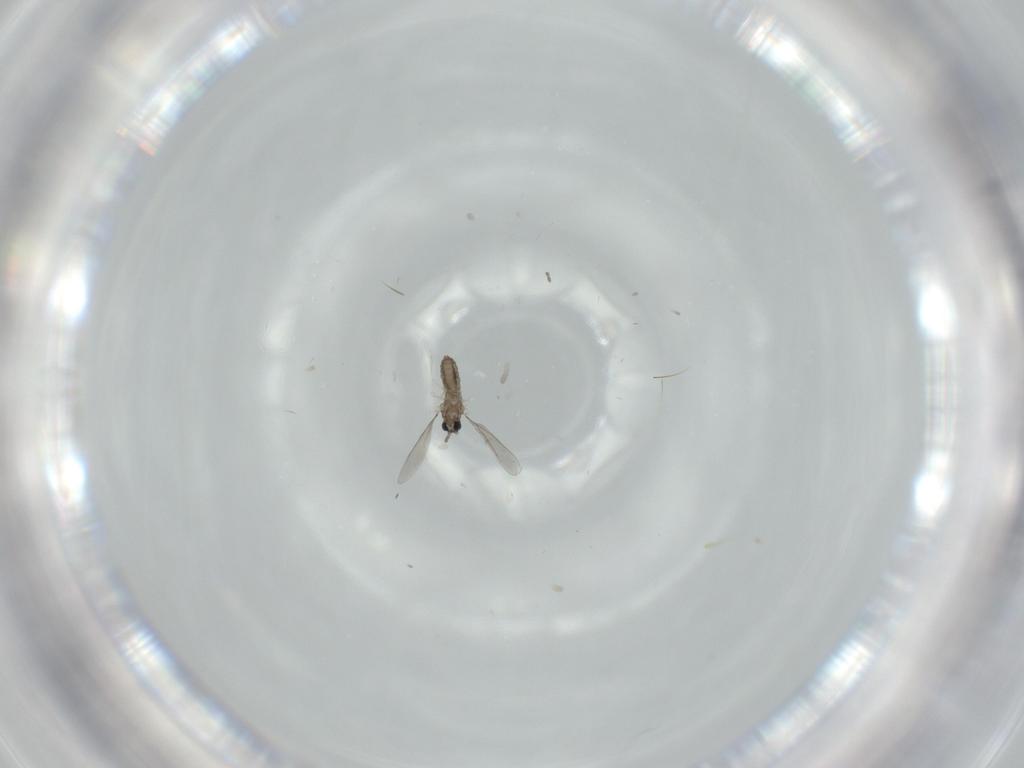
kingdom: Animalia
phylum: Arthropoda
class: Insecta
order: Diptera
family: Cecidomyiidae
